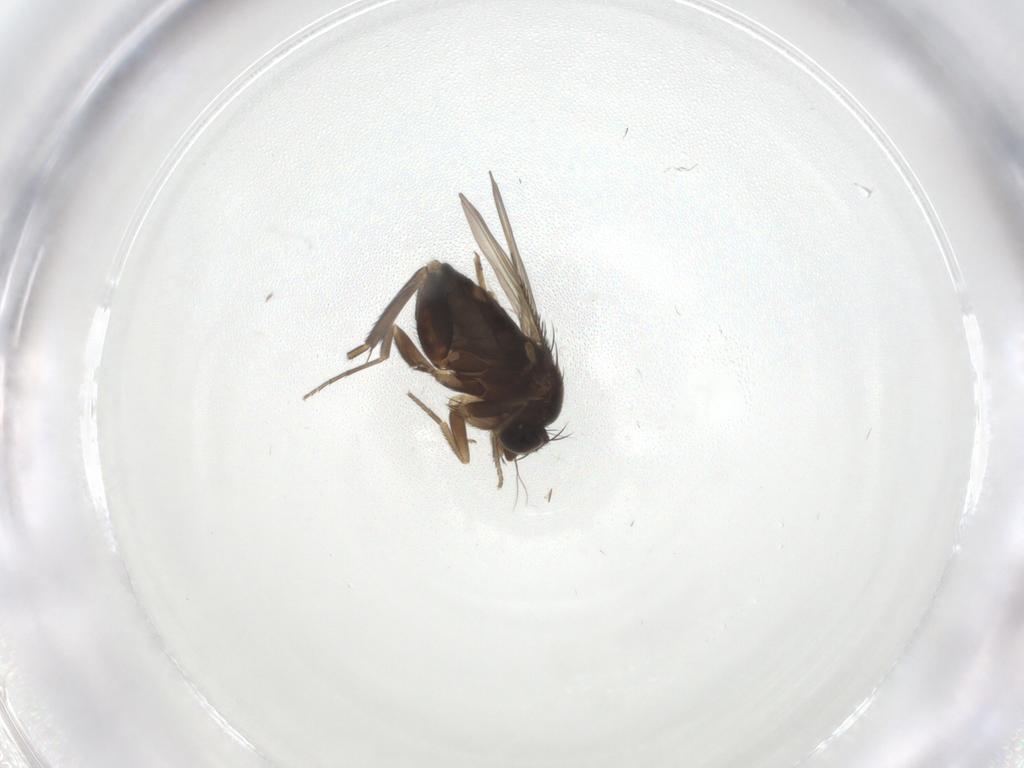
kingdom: Animalia
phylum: Arthropoda
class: Insecta
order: Diptera
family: Phoridae
